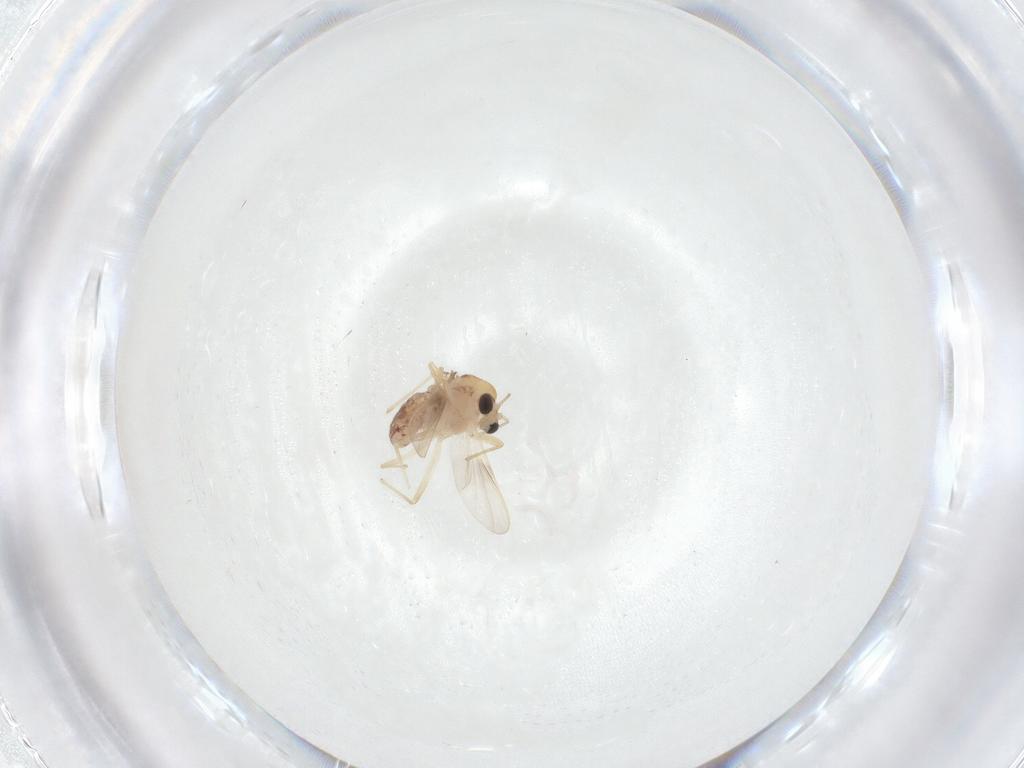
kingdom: Animalia
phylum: Arthropoda
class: Insecta
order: Diptera
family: Chironomidae
